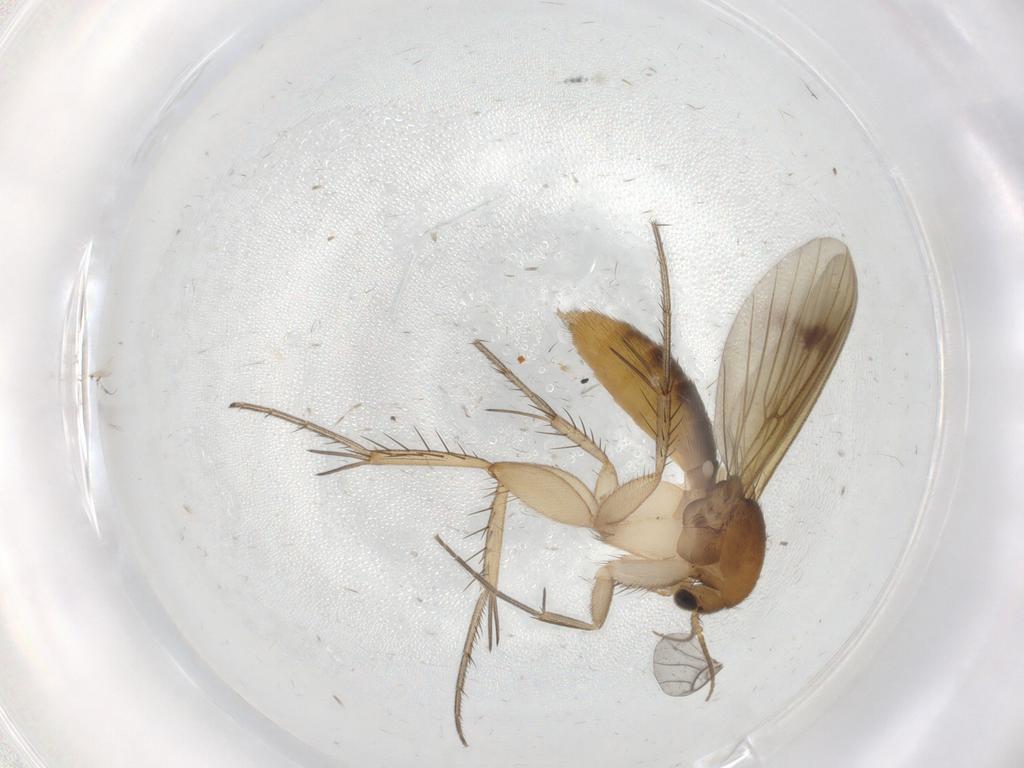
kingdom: Animalia
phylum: Arthropoda
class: Insecta
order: Diptera
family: Mycetophilidae
